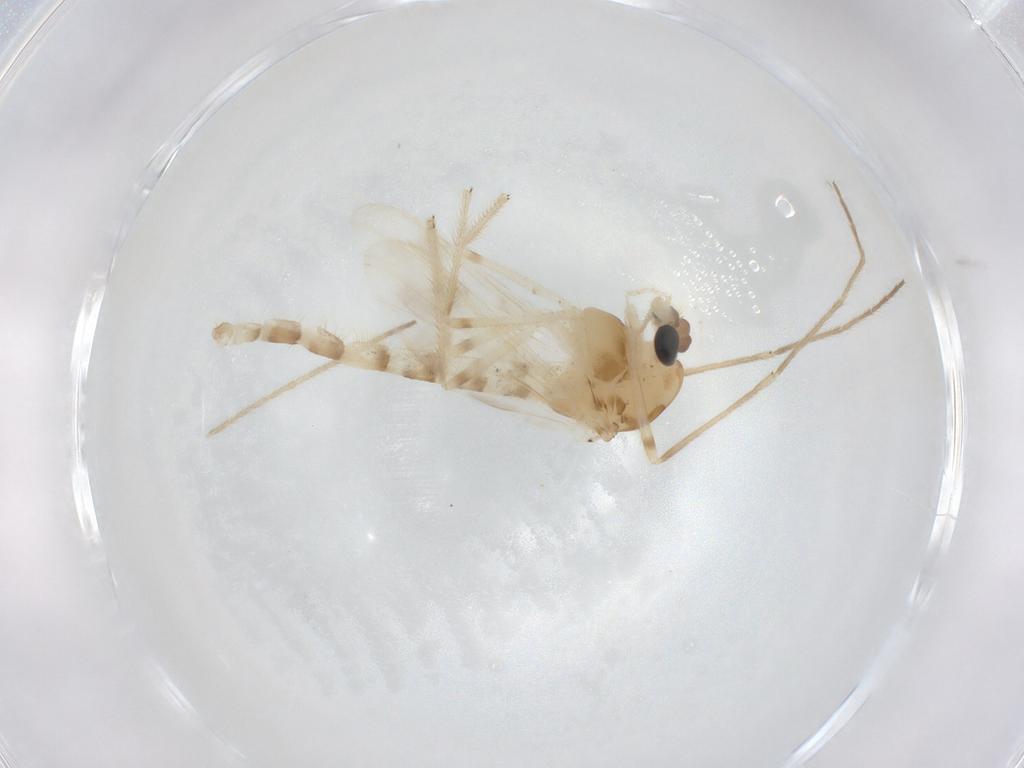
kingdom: Animalia
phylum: Arthropoda
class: Insecta
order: Diptera
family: Chironomidae
